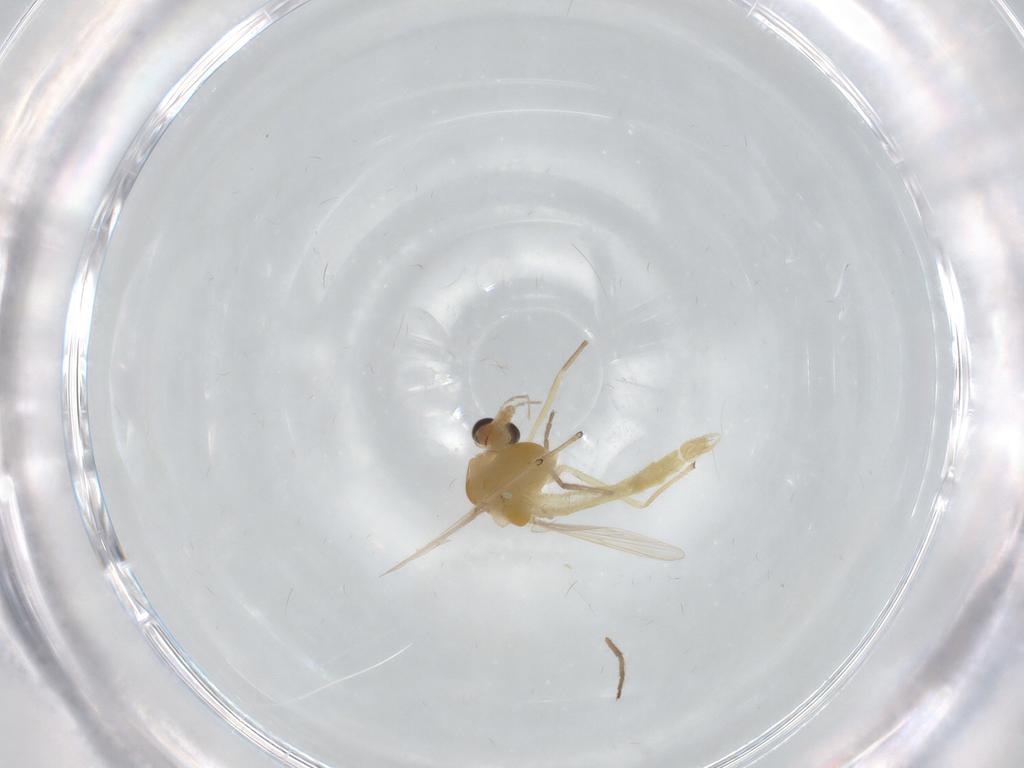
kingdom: Animalia
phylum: Arthropoda
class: Insecta
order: Diptera
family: Chironomidae
